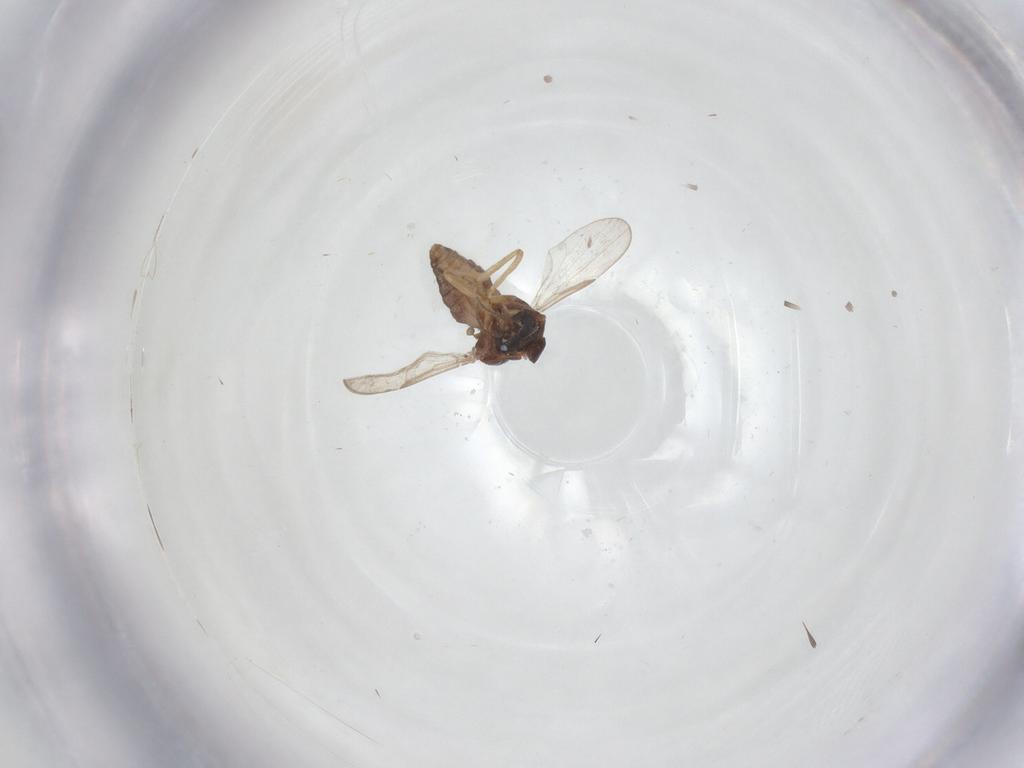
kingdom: Animalia
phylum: Arthropoda
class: Insecta
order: Diptera
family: Ceratopogonidae
